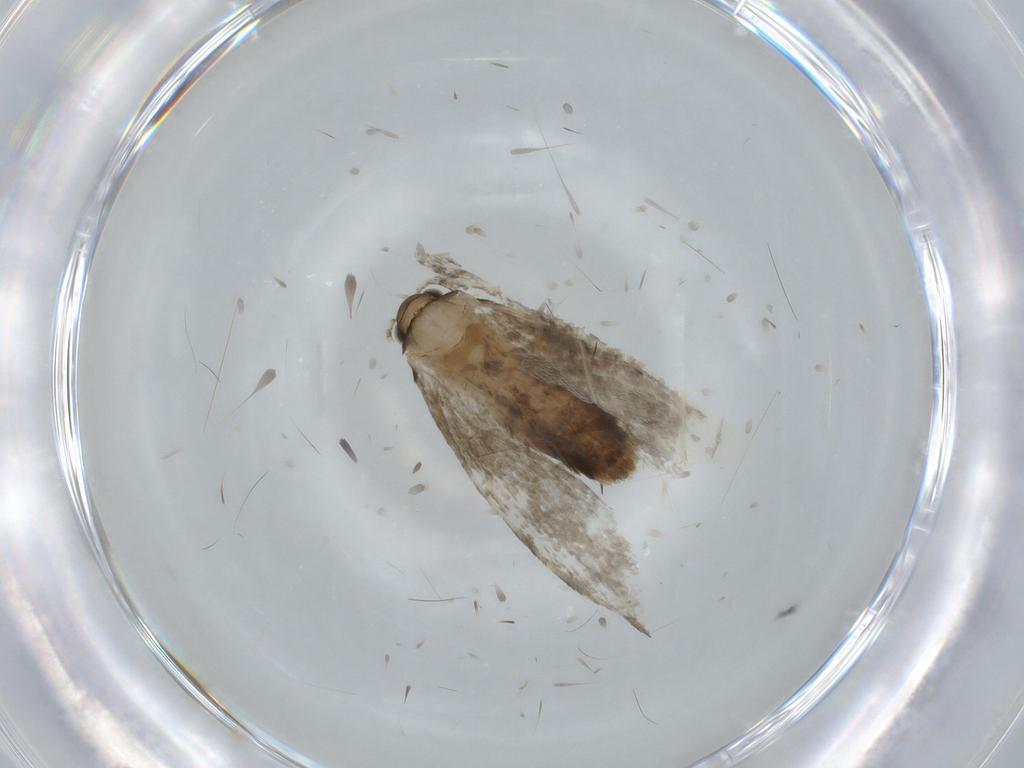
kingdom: Animalia
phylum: Arthropoda
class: Insecta
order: Lepidoptera
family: Tineidae
